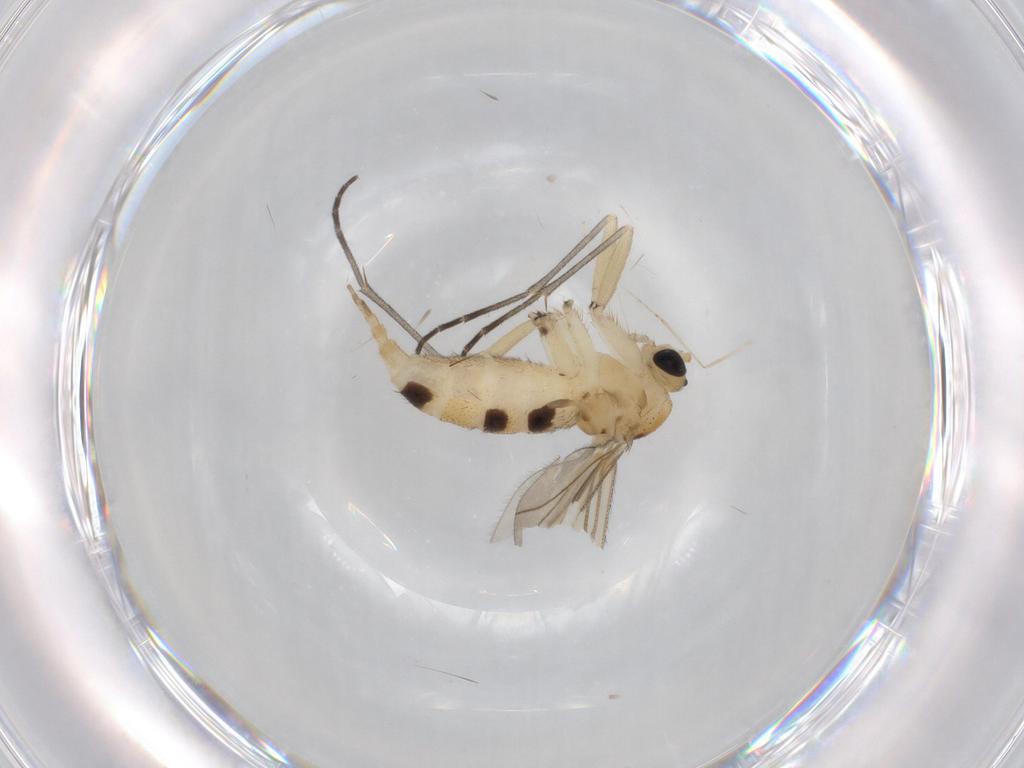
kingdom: Animalia
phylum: Arthropoda
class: Insecta
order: Diptera
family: Sciaridae
